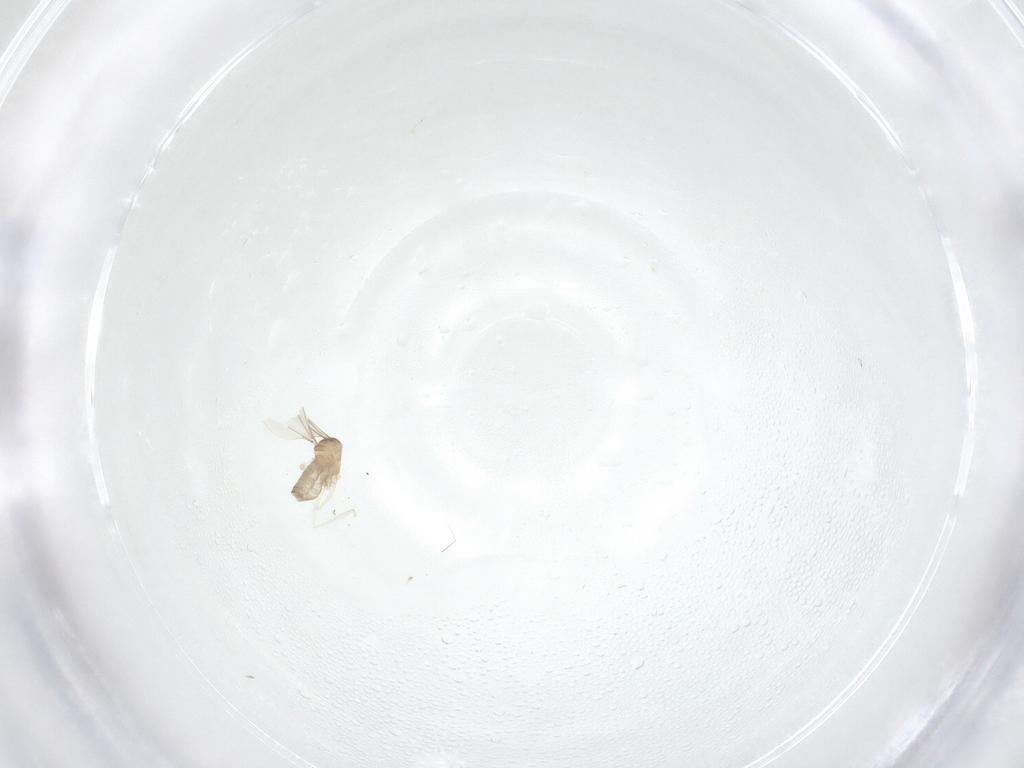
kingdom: Animalia
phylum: Arthropoda
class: Insecta
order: Diptera
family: Cecidomyiidae
